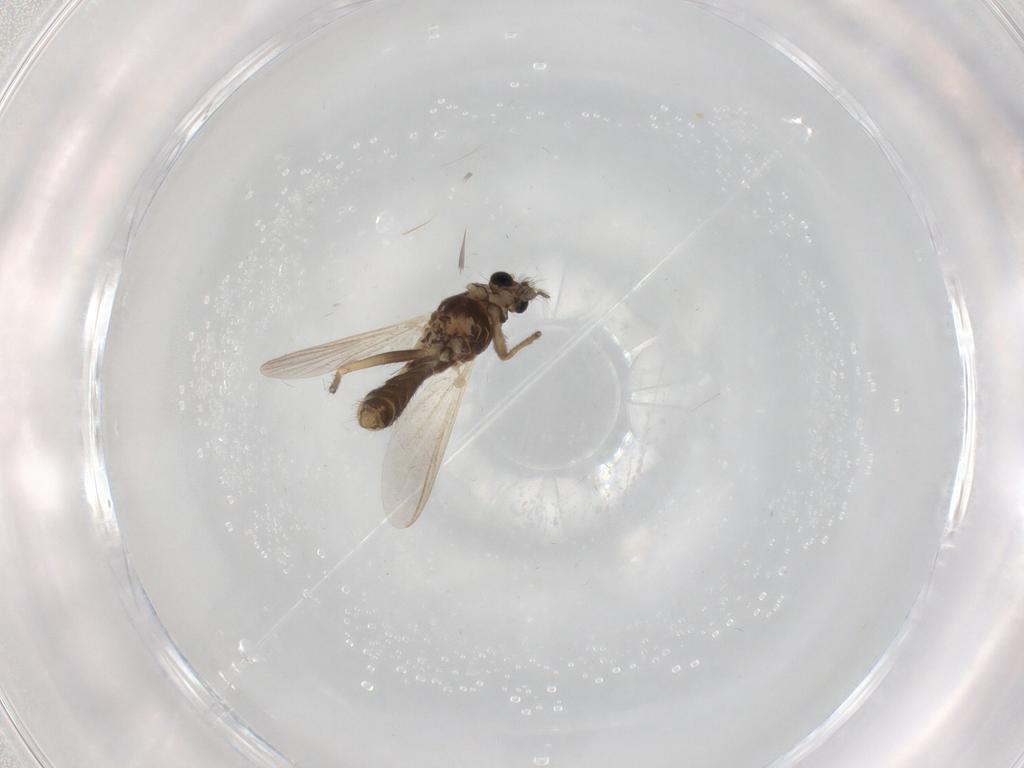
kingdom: Animalia
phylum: Arthropoda
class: Insecta
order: Diptera
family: Chironomidae
